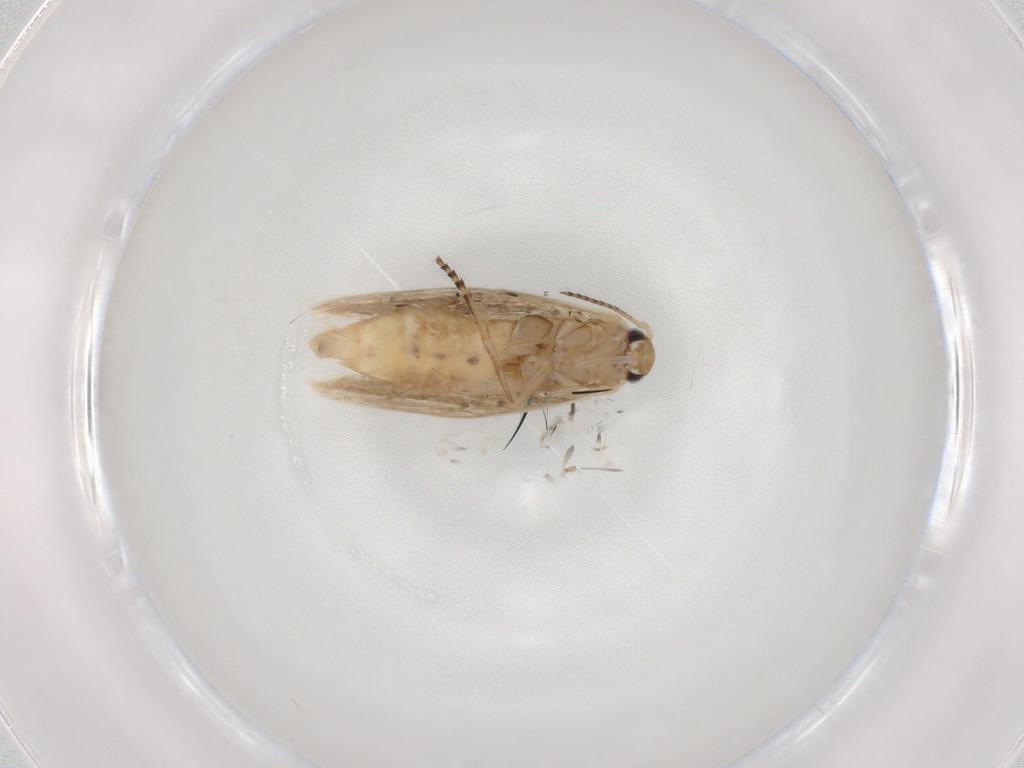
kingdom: Animalia
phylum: Arthropoda
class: Insecta
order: Lepidoptera
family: Bucculatricidae
